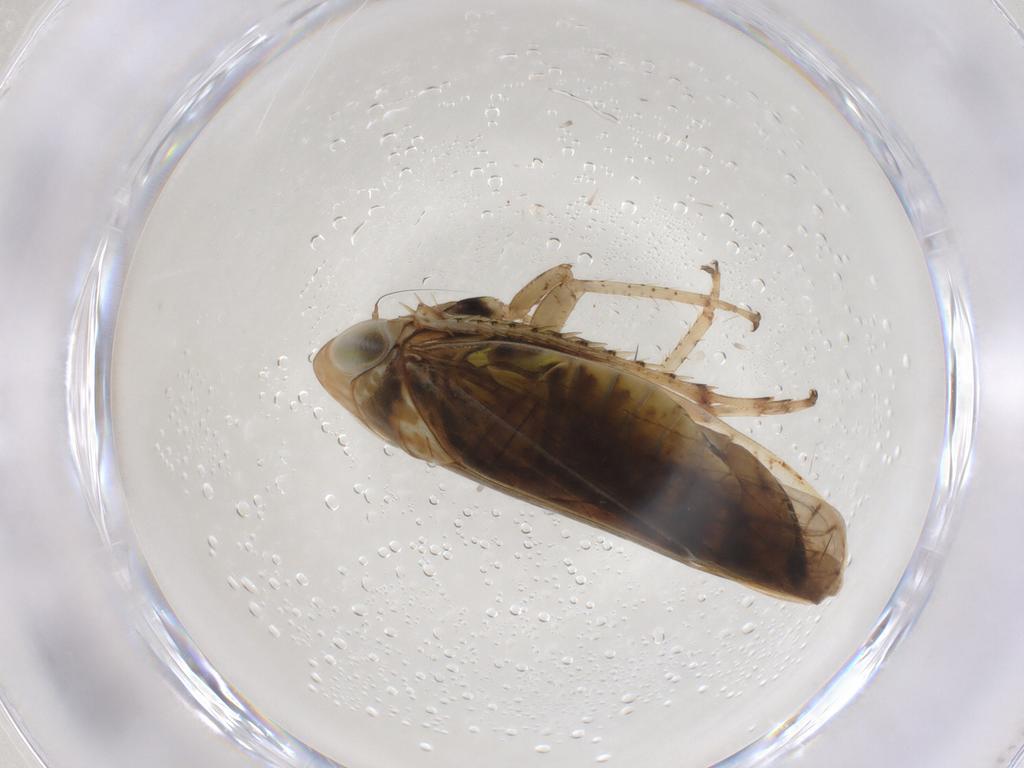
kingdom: Animalia
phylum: Arthropoda
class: Insecta
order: Hemiptera
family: Cicadellidae
